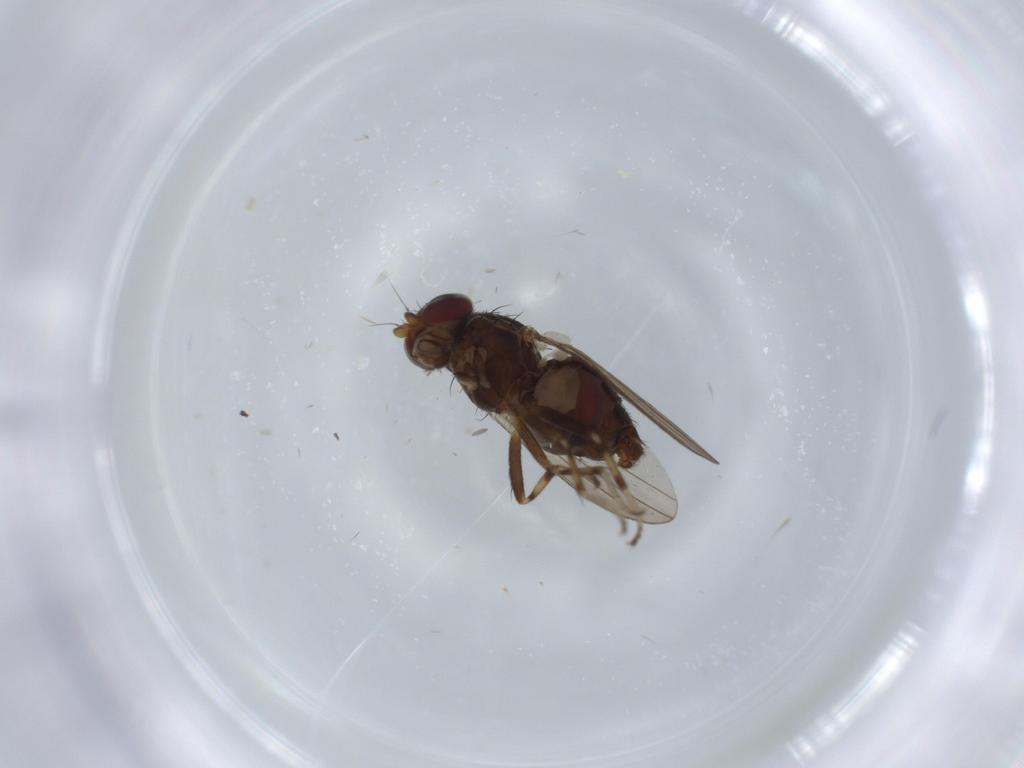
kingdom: Animalia
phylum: Arthropoda
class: Insecta
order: Diptera
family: Heleomyzidae
